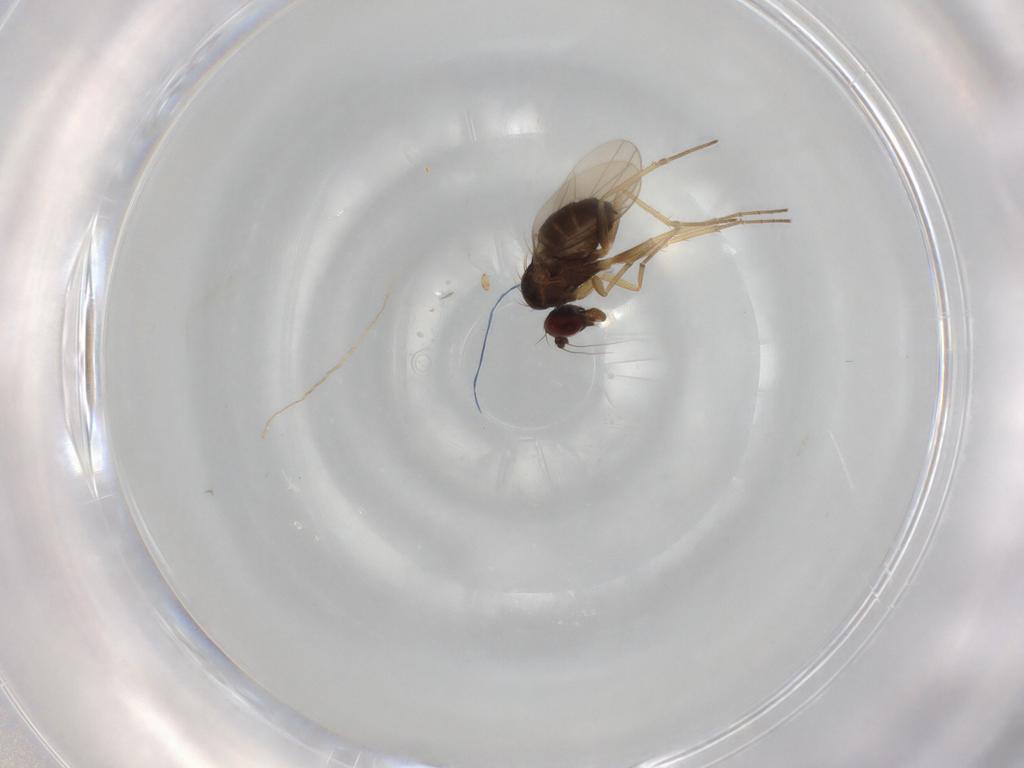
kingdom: Animalia
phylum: Arthropoda
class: Insecta
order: Diptera
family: Dolichopodidae
